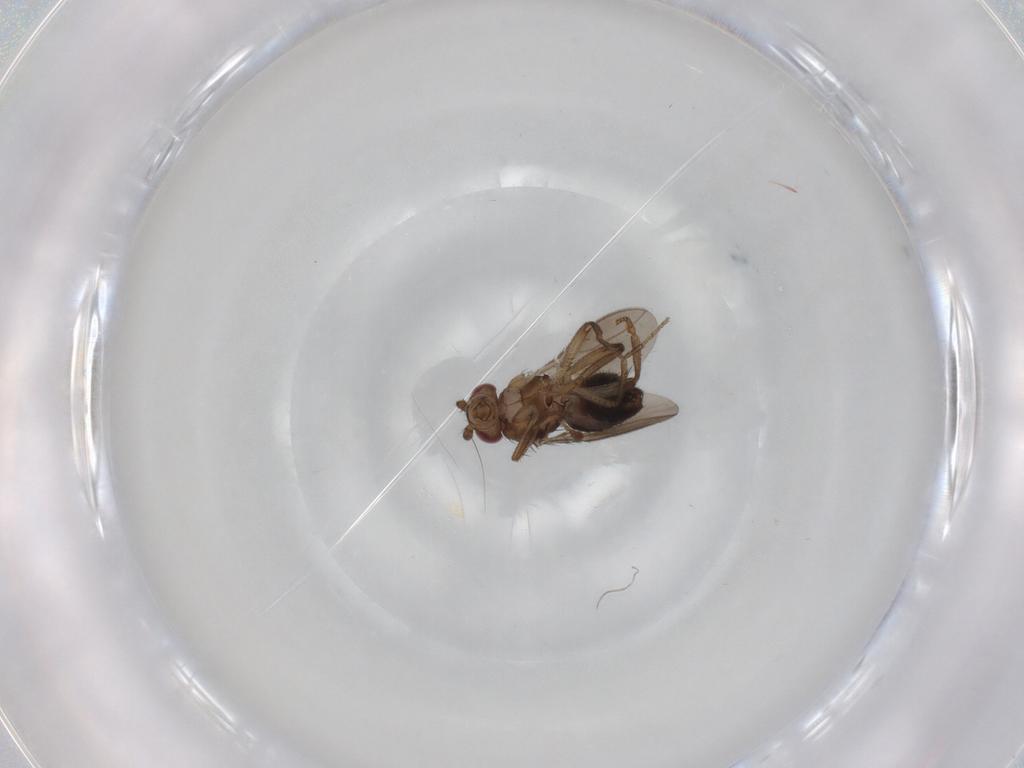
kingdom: Animalia
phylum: Arthropoda
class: Insecta
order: Diptera
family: Sphaeroceridae
